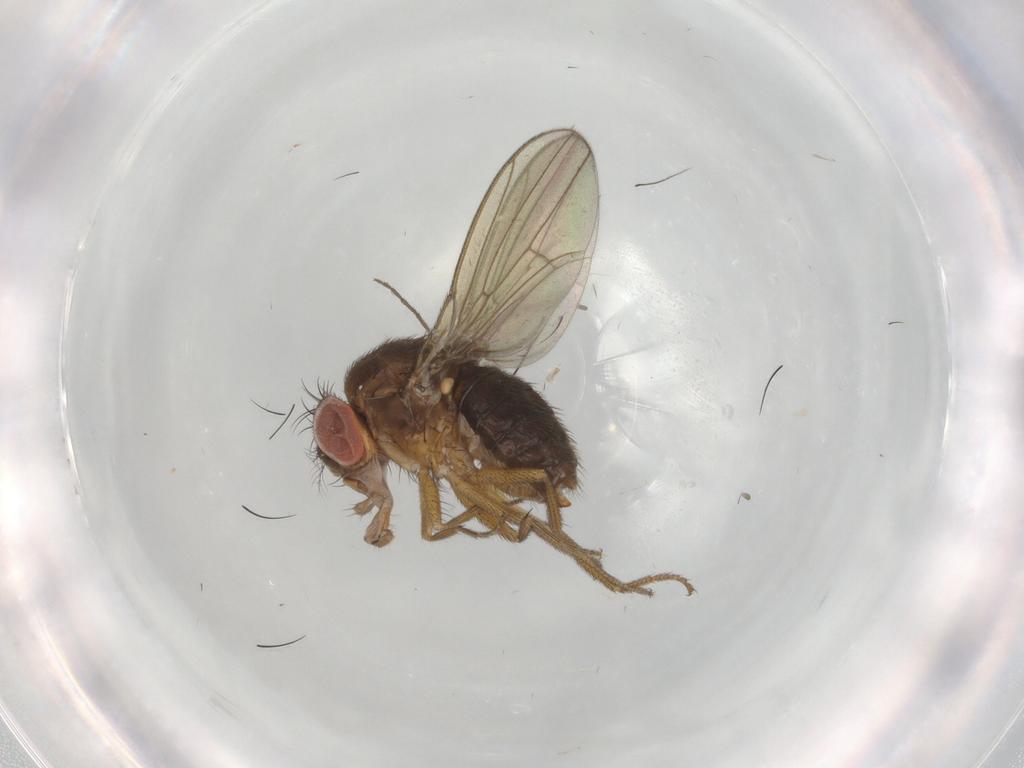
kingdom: Animalia
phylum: Arthropoda
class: Insecta
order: Diptera
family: Drosophilidae
